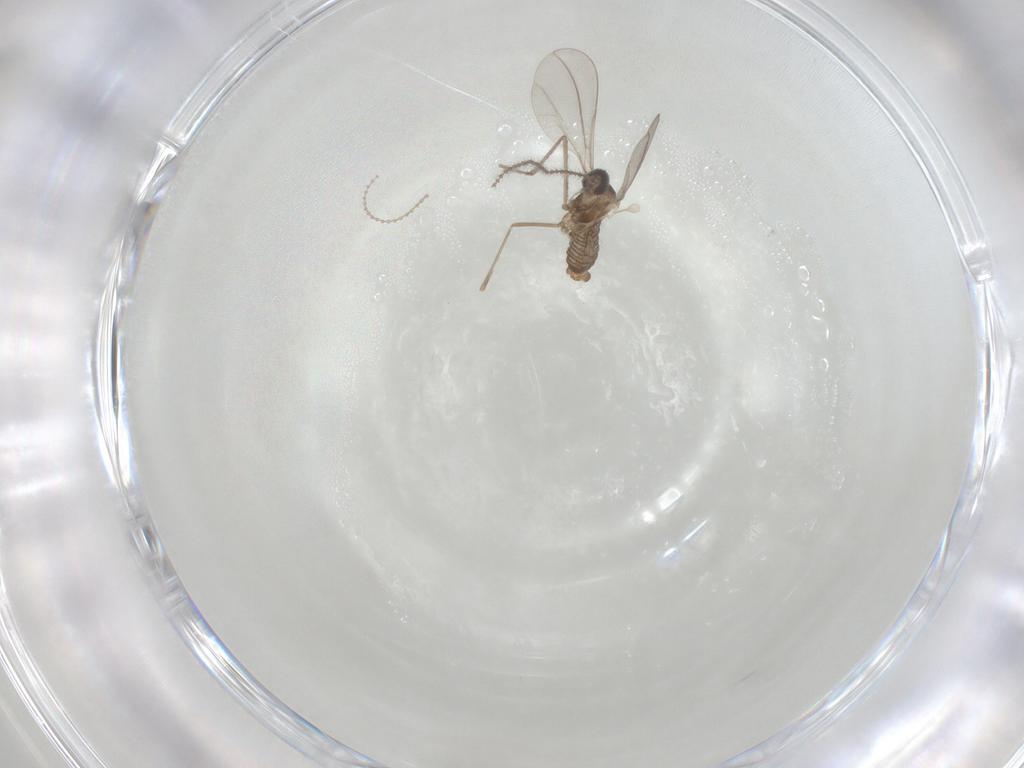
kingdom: Animalia
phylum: Arthropoda
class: Insecta
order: Diptera
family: Cecidomyiidae
